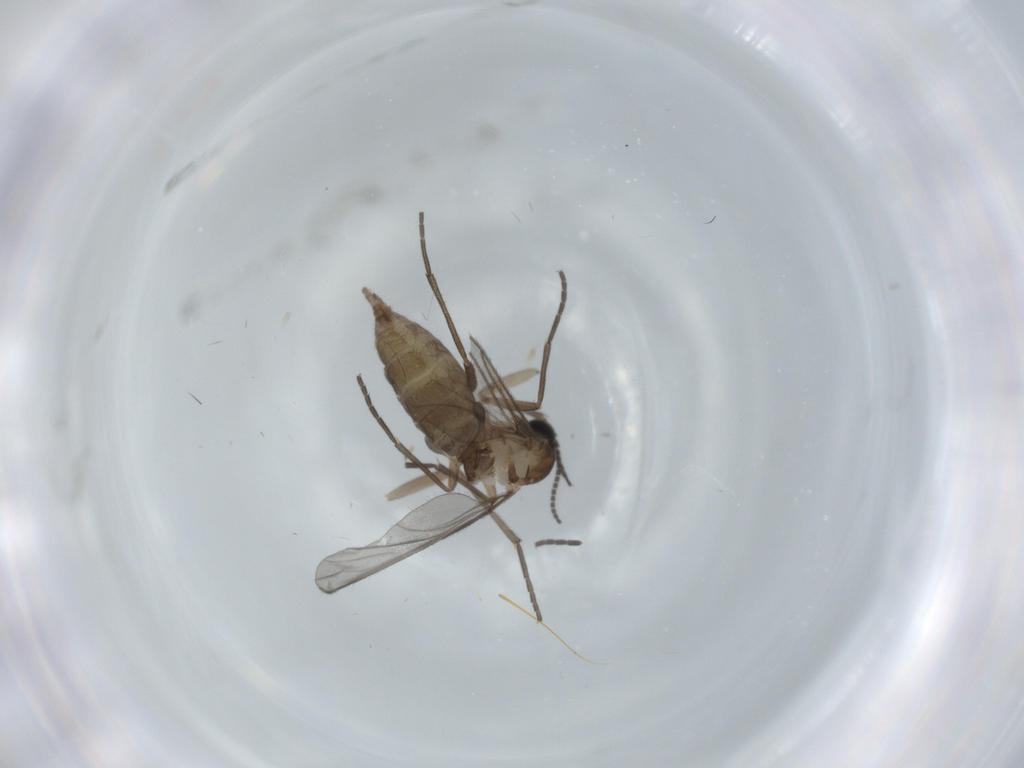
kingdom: Animalia
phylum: Arthropoda
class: Insecta
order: Diptera
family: Sciaridae
